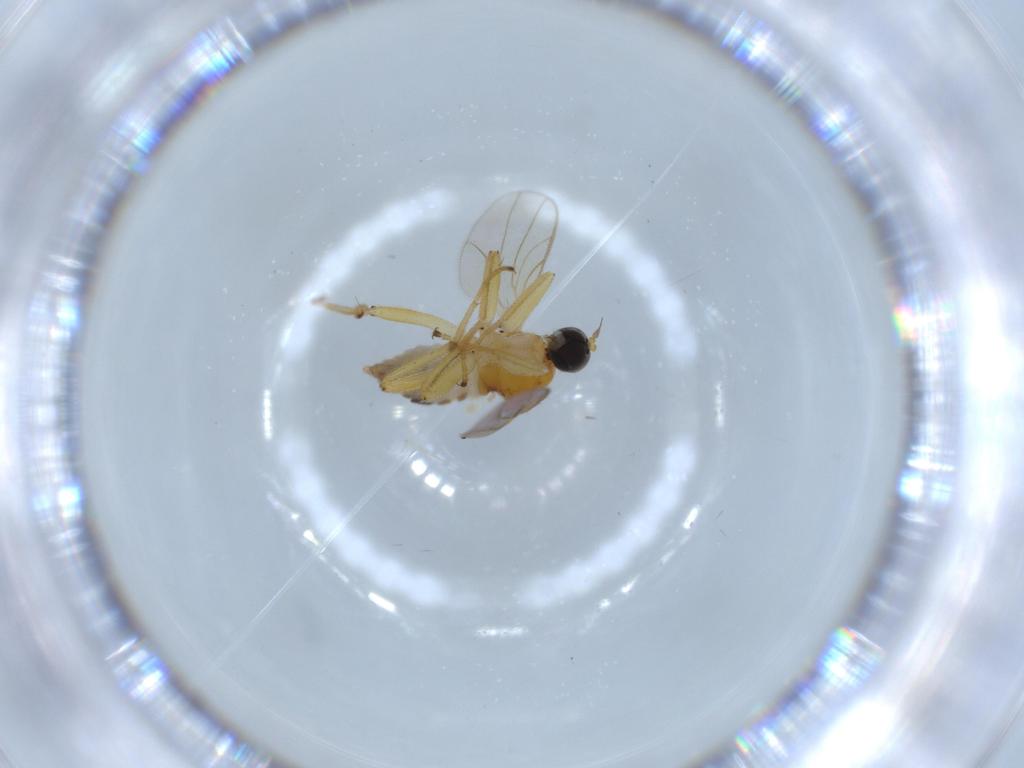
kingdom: Animalia
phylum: Arthropoda
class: Insecta
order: Diptera
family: Hybotidae
